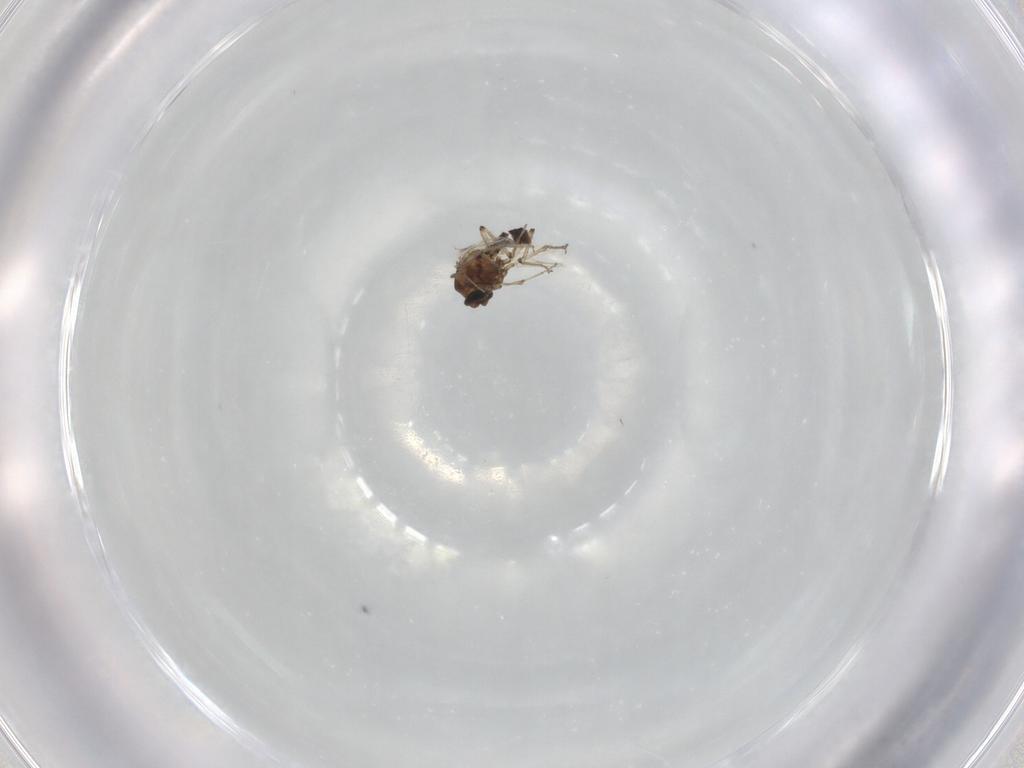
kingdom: Animalia
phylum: Arthropoda
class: Insecta
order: Diptera
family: Ceratopogonidae
